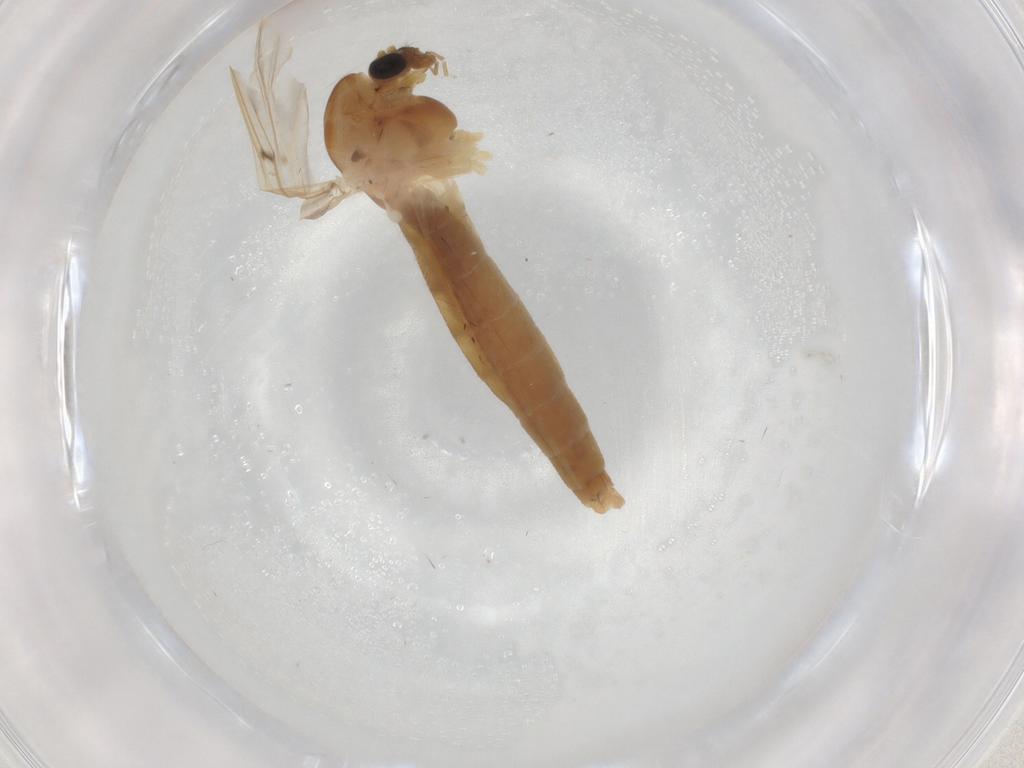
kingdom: Animalia
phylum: Arthropoda
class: Insecta
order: Diptera
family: Chironomidae
